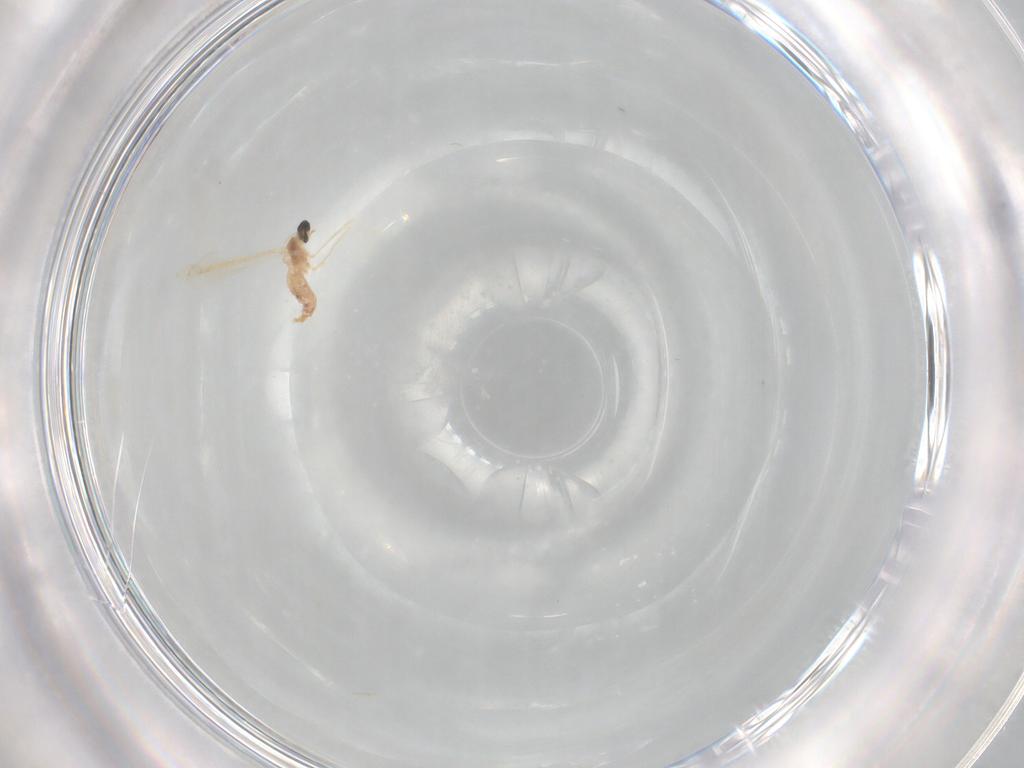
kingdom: Animalia
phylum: Arthropoda
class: Insecta
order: Diptera
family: Cecidomyiidae
